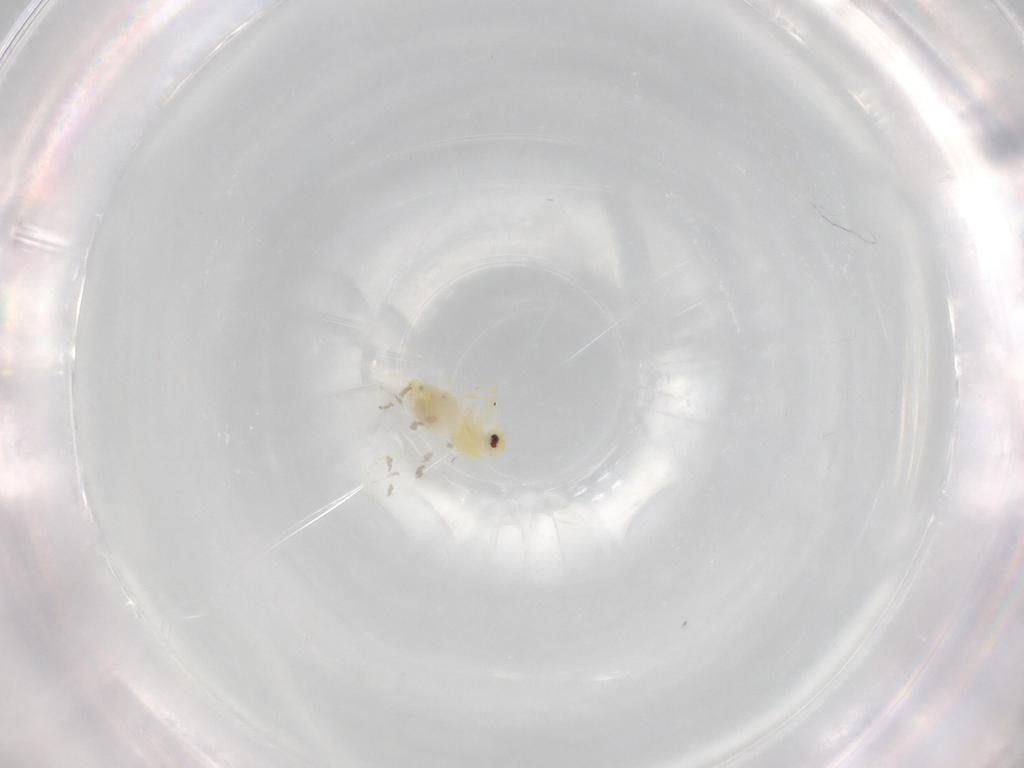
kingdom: Animalia
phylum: Arthropoda
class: Insecta
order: Hemiptera
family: Aleyrodidae
